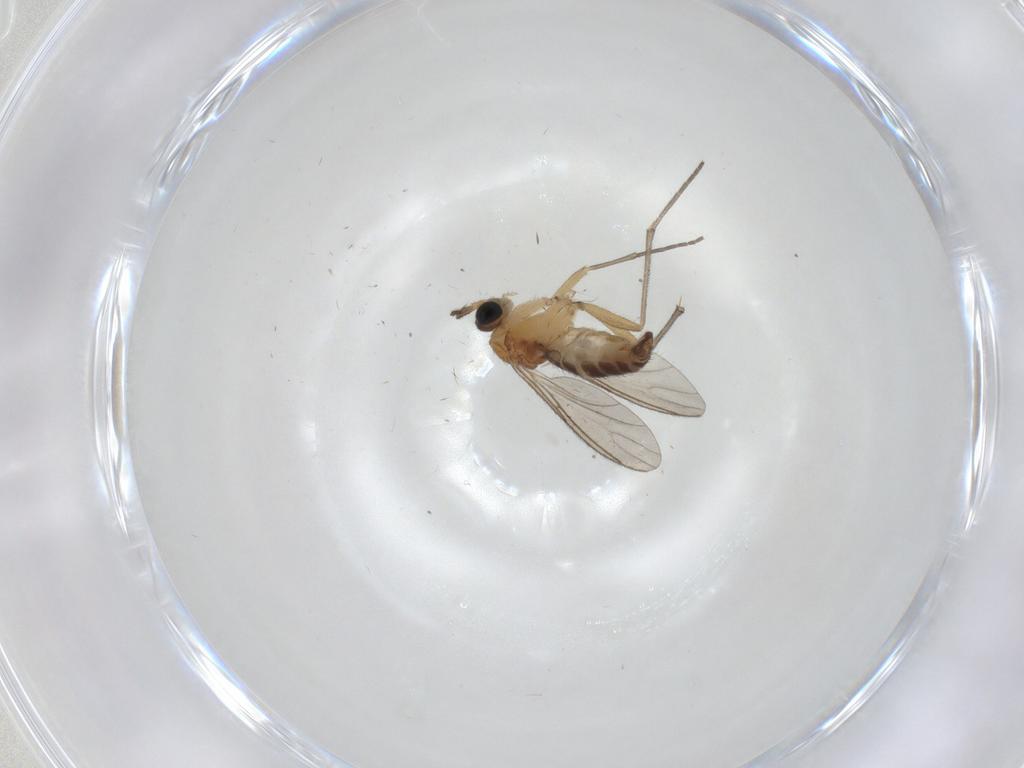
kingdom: Animalia
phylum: Arthropoda
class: Insecta
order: Diptera
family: Sciaridae
